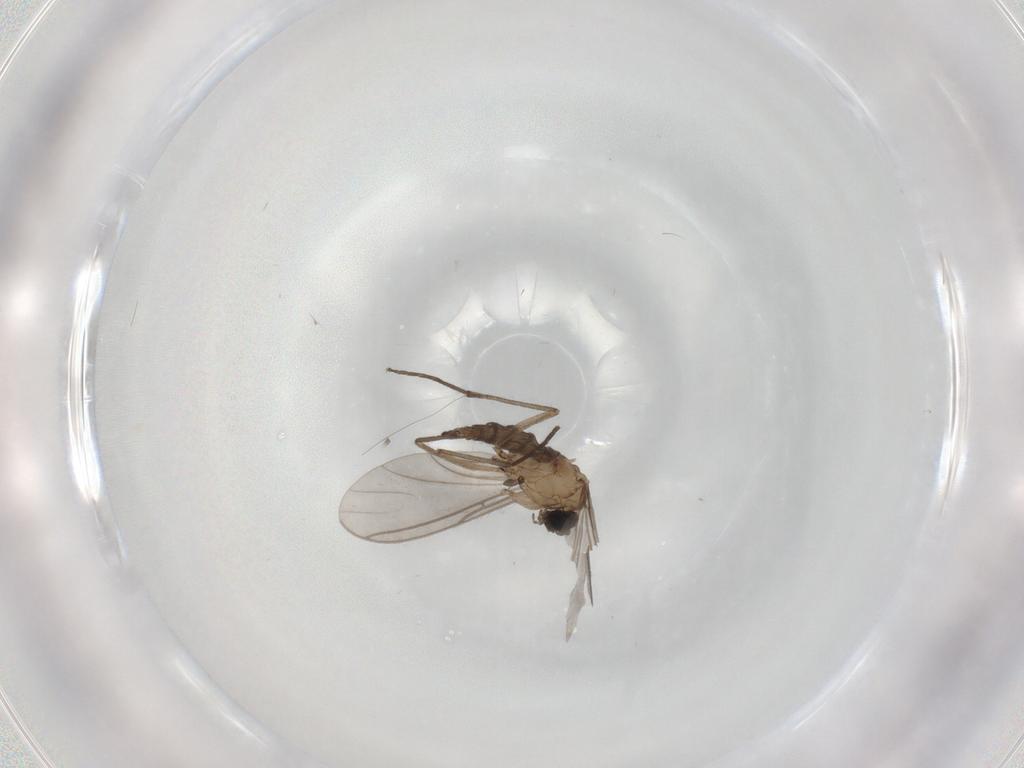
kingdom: Animalia
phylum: Arthropoda
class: Insecta
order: Diptera
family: Sciaridae
